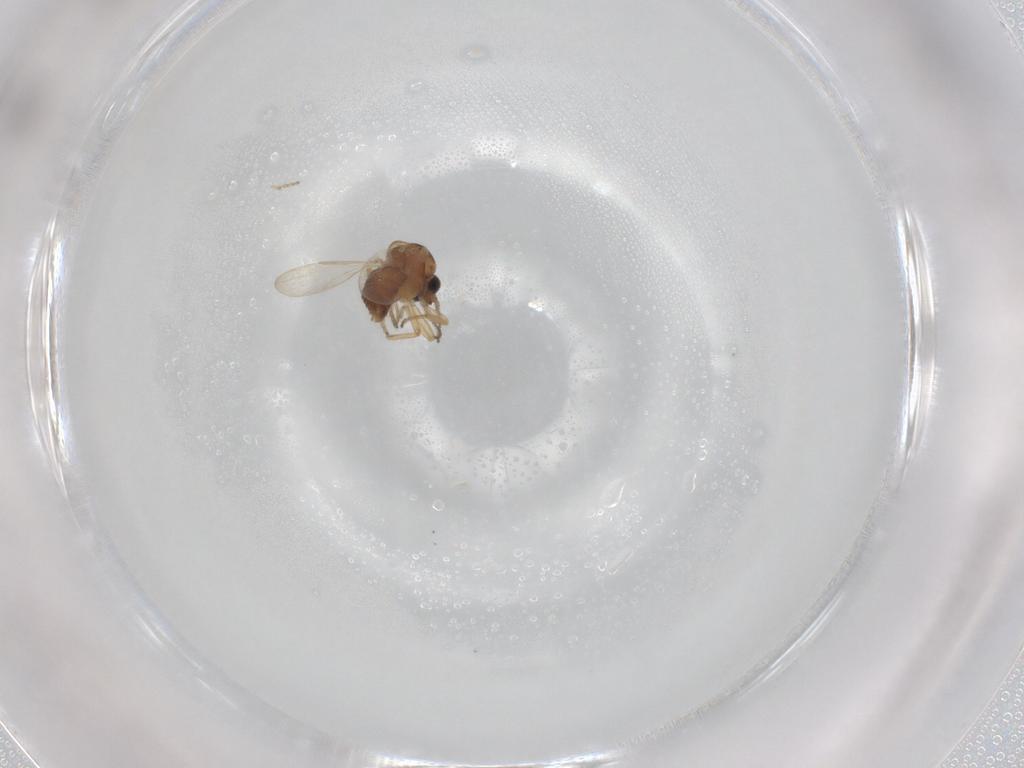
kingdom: Animalia
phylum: Arthropoda
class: Insecta
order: Diptera
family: Ceratopogonidae
